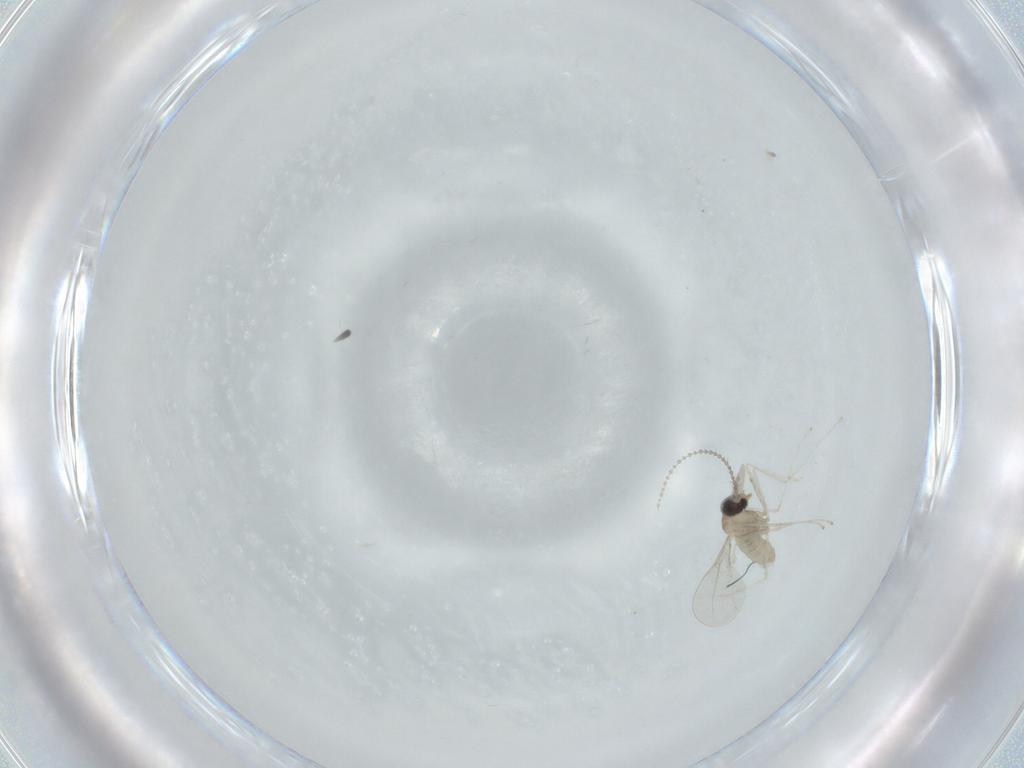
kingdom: Animalia
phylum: Arthropoda
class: Insecta
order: Diptera
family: Cecidomyiidae
